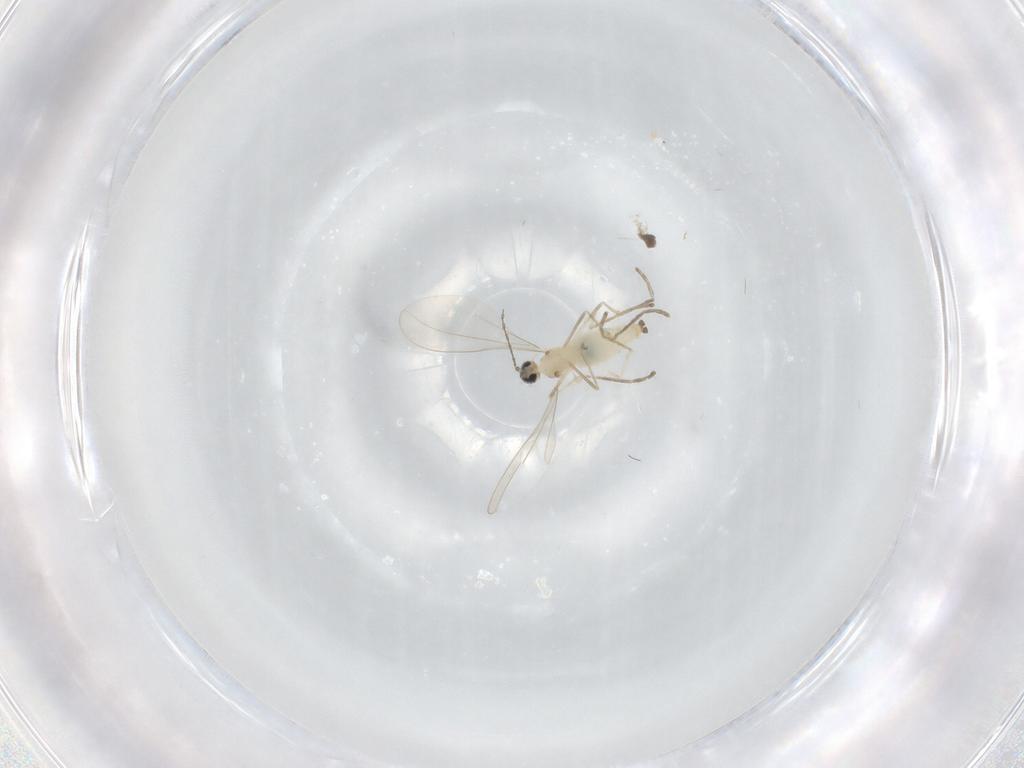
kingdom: Animalia
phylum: Arthropoda
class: Insecta
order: Diptera
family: Cecidomyiidae
